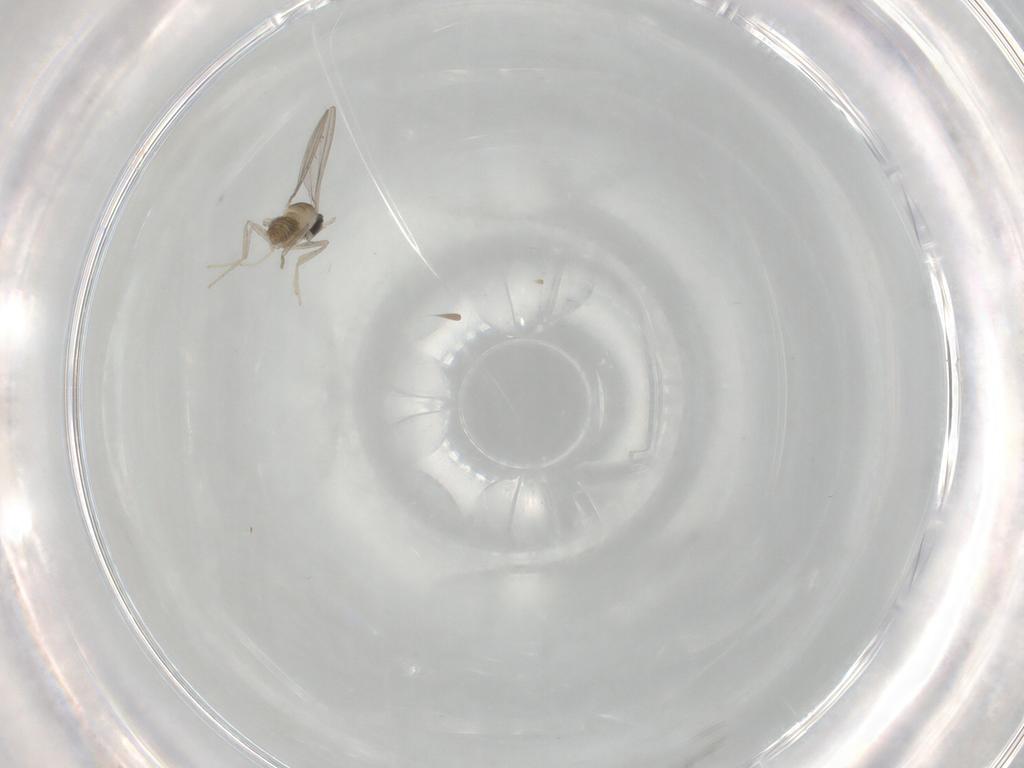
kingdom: Animalia
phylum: Arthropoda
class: Insecta
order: Diptera
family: Cecidomyiidae
